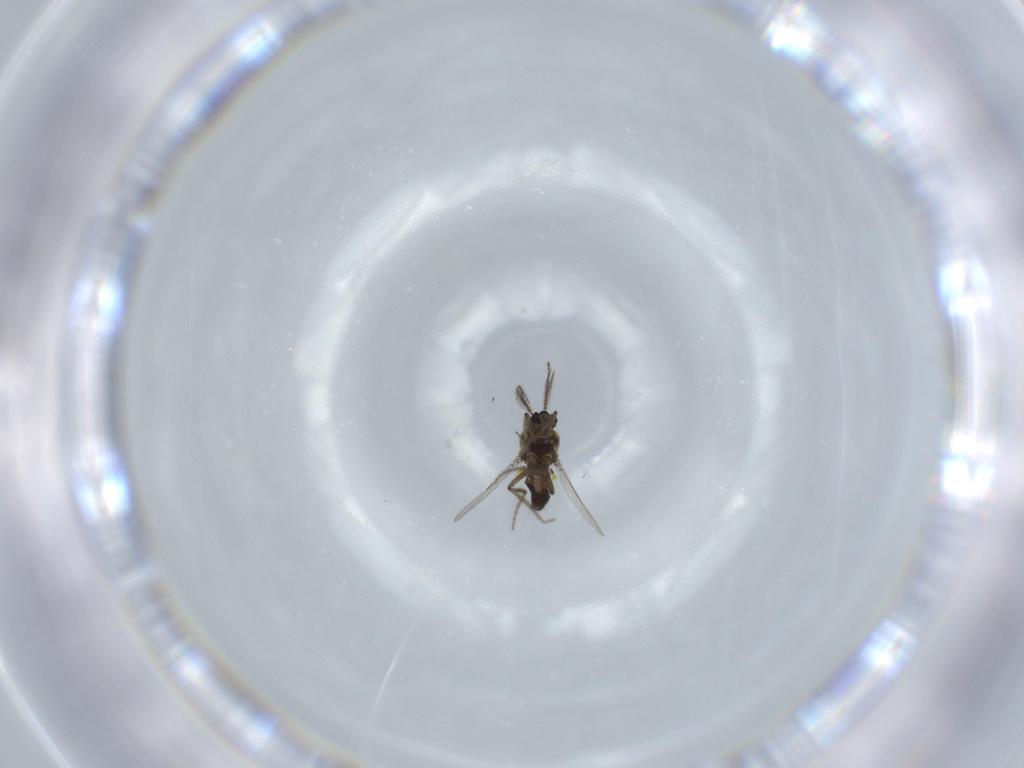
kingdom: Animalia
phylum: Arthropoda
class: Insecta
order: Diptera
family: Ceratopogonidae
